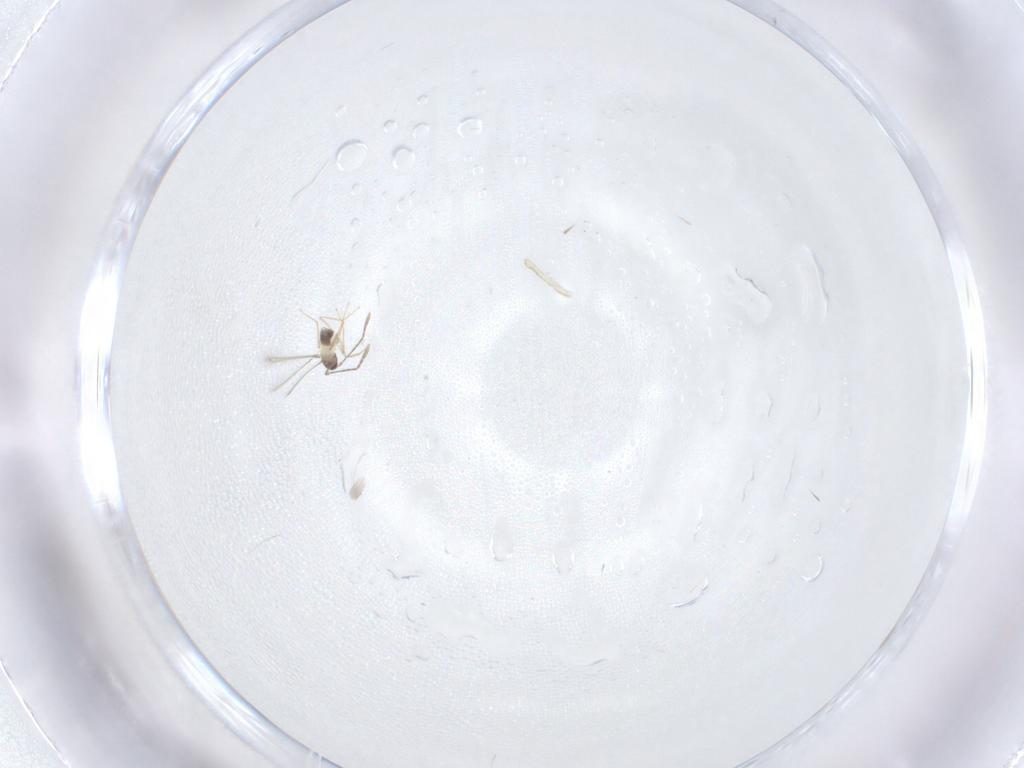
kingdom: Animalia
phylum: Arthropoda
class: Insecta
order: Hymenoptera
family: Mymaridae
